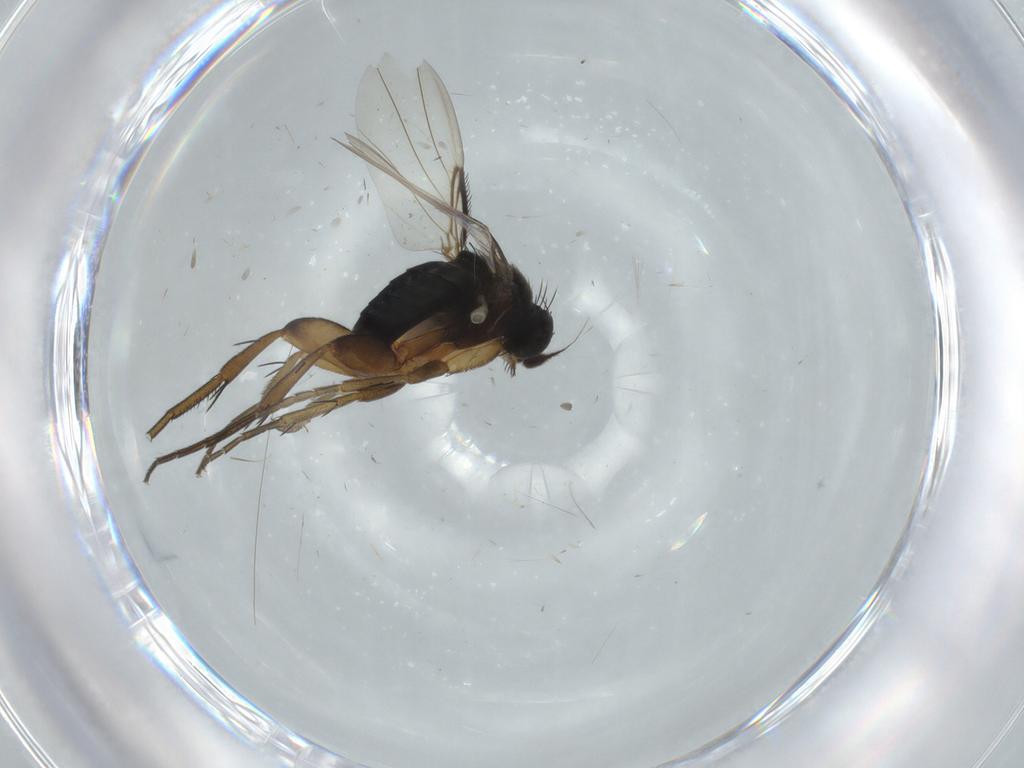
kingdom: Animalia
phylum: Arthropoda
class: Insecta
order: Diptera
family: Phoridae
